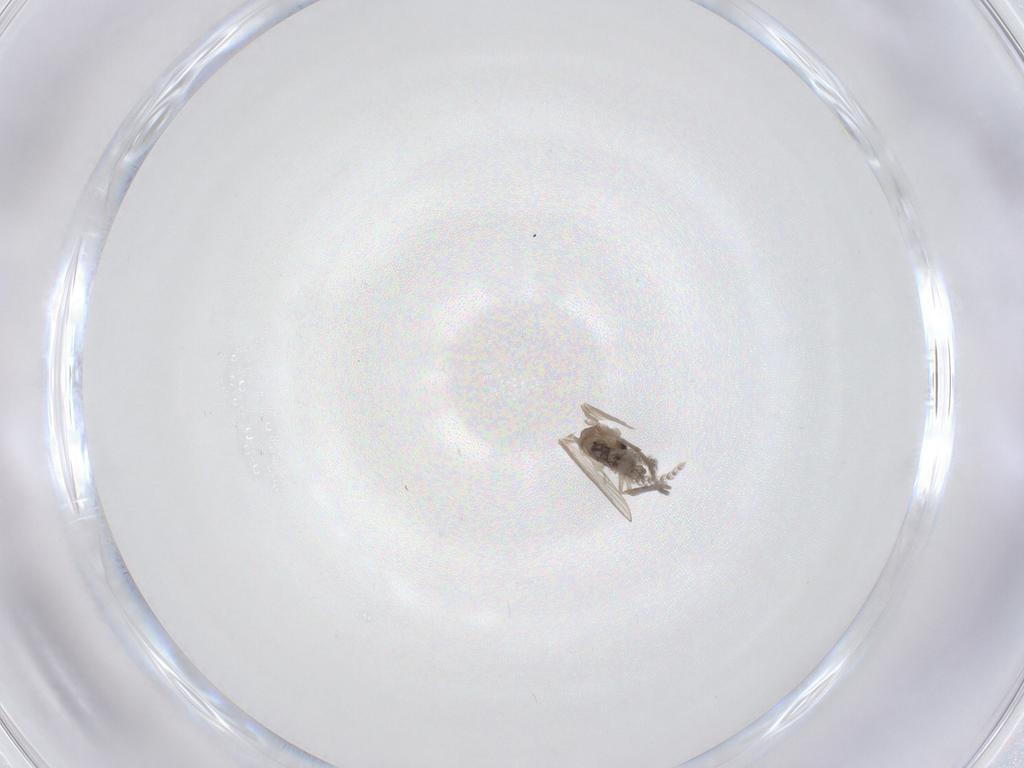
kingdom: Animalia
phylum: Arthropoda
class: Insecta
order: Diptera
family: Psychodidae
